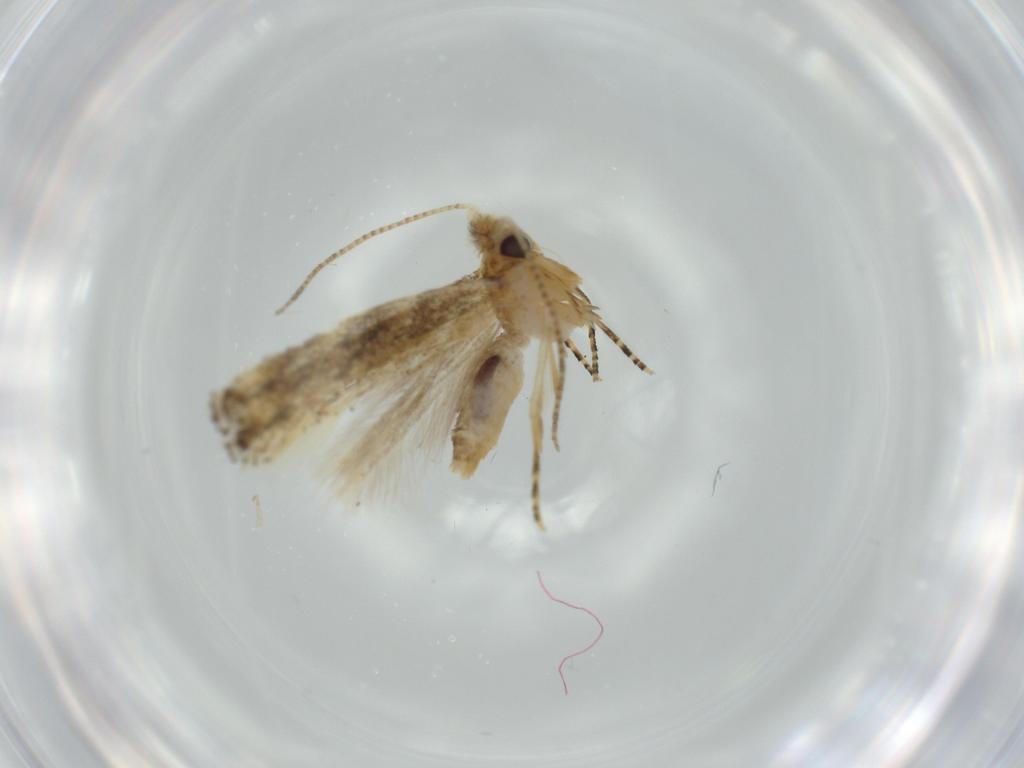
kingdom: Animalia
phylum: Arthropoda
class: Insecta
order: Lepidoptera
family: Bucculatricidae
